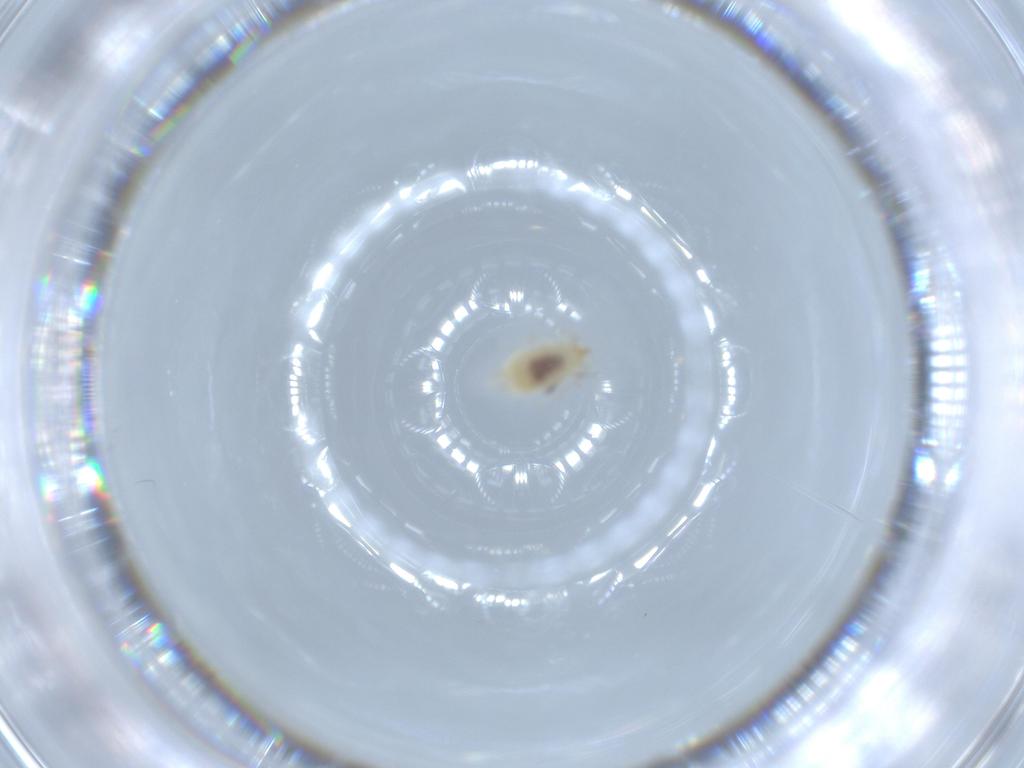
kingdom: Animalia
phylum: Arthropoda
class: Insecta
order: Neuroptera
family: Coniopterygidae
